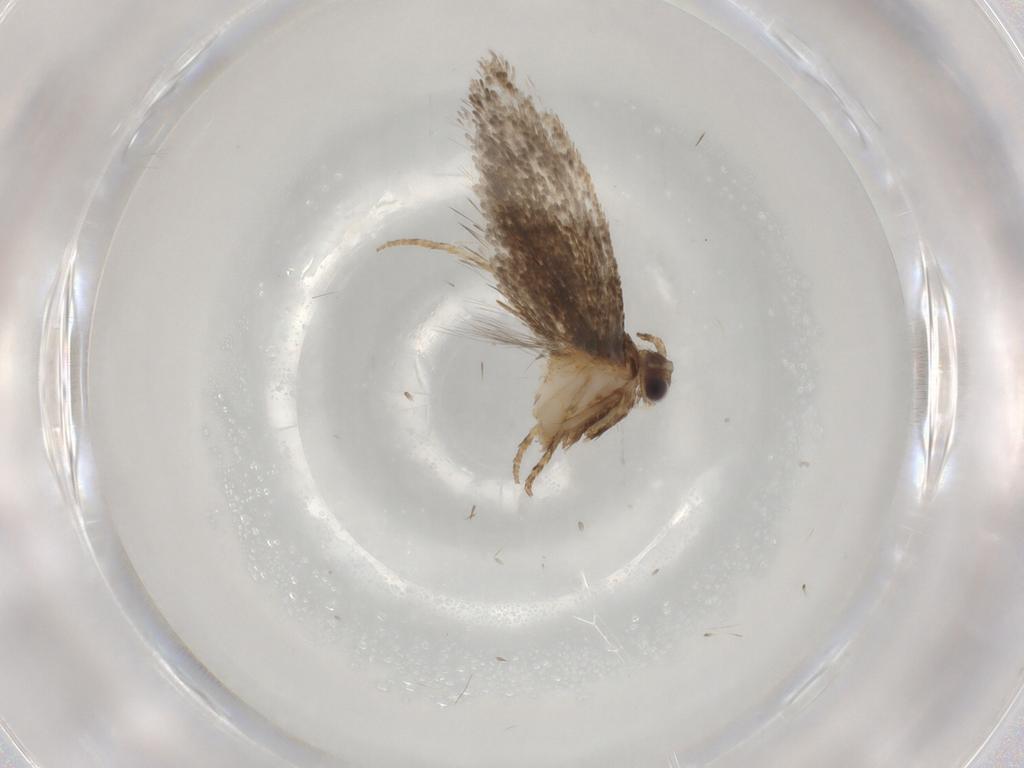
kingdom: Animalia
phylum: Arthropoda
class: Insecta
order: Lepidoptera
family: Tineidae
